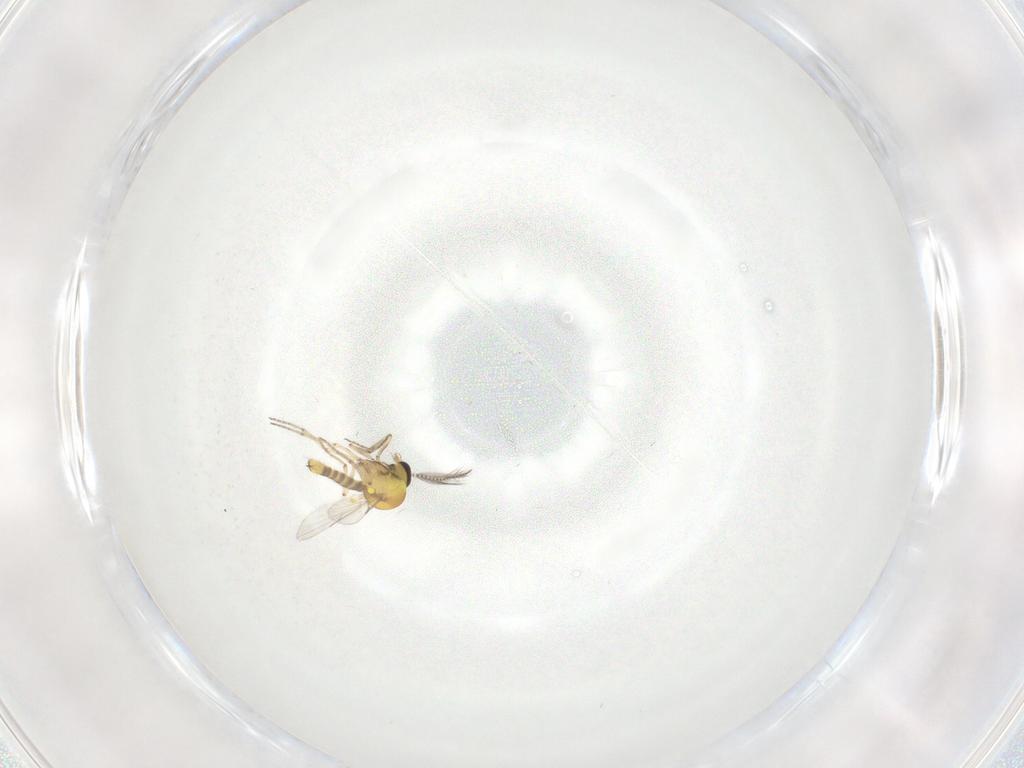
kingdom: Animalia
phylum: Arthropoda
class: Insecta
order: Diptera
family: Ceratopogonidae
